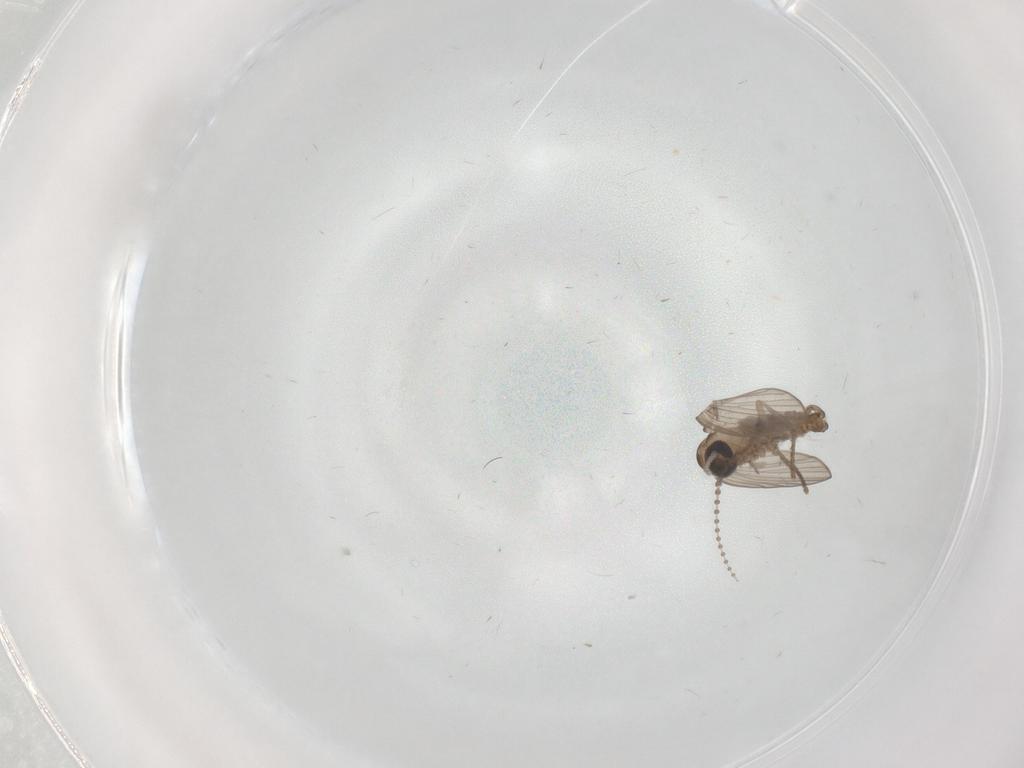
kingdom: Animalia
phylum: Arthropoda
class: Insecta
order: Diptera
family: Psychodidae
